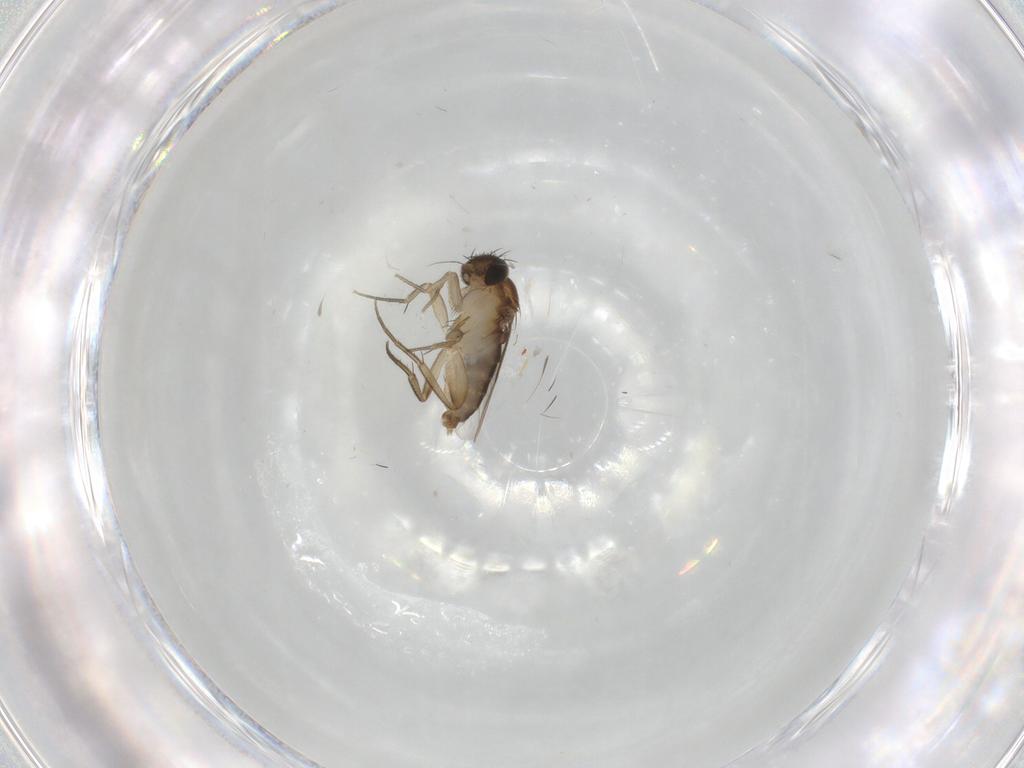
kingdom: Animalia
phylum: Arthropoda
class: Insecta
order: Diptera
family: Phoridae
